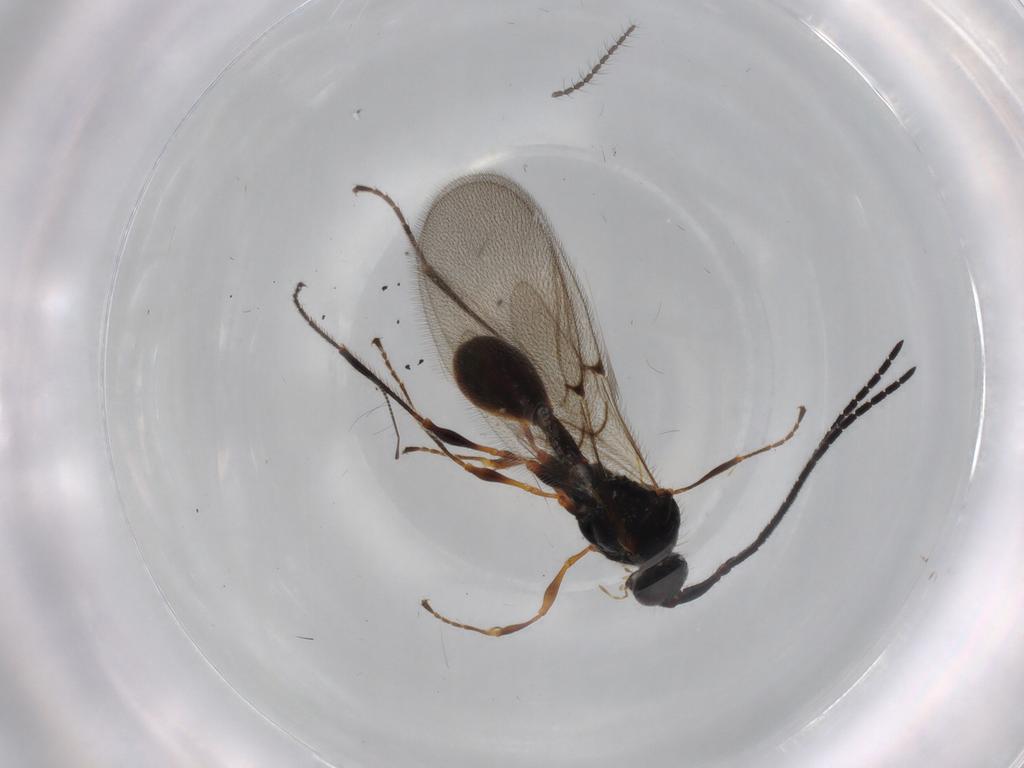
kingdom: Animalia
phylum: Arthropoda
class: Insecta
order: Hymenoptera
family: Diapriidae
